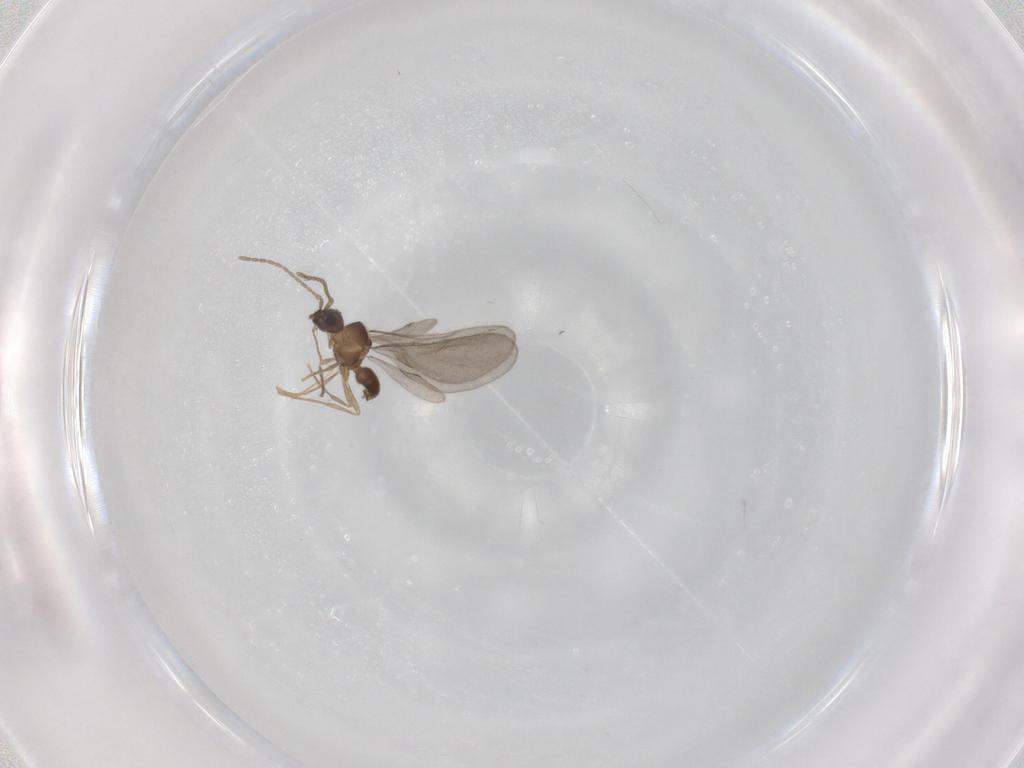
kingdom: Animalia
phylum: Arthropoda
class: Insecta
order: Hymenoptera
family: Formicidae
